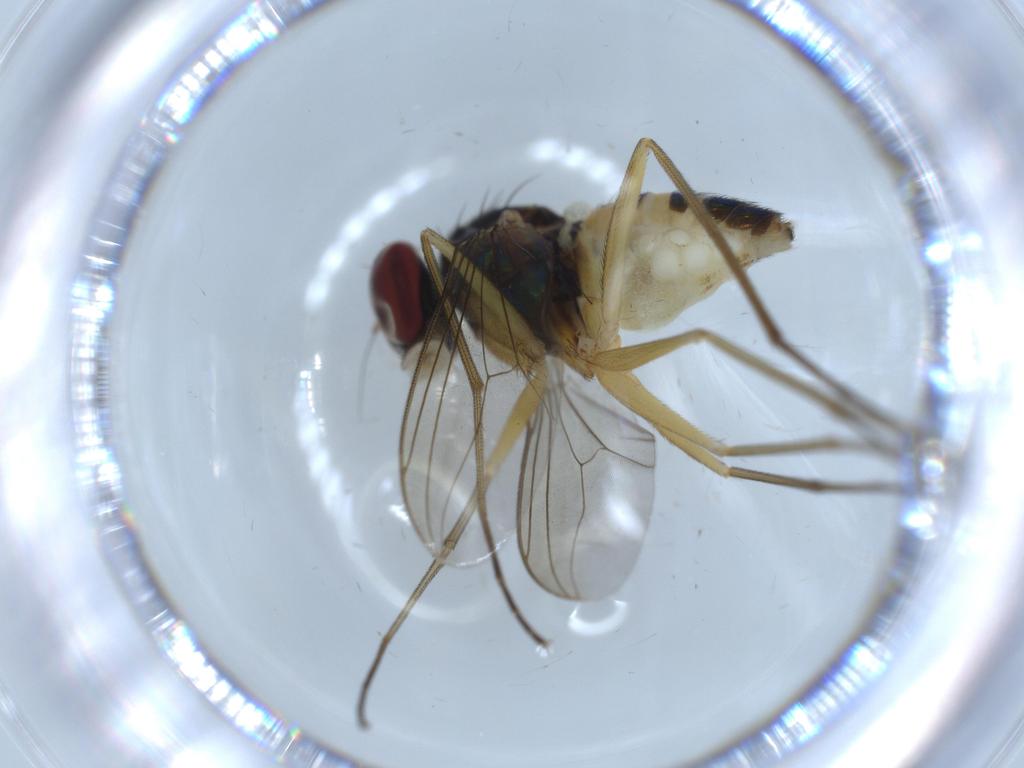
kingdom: Animalia
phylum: Arthropoda
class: Insecta
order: Diptera
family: Dolichopodidae
